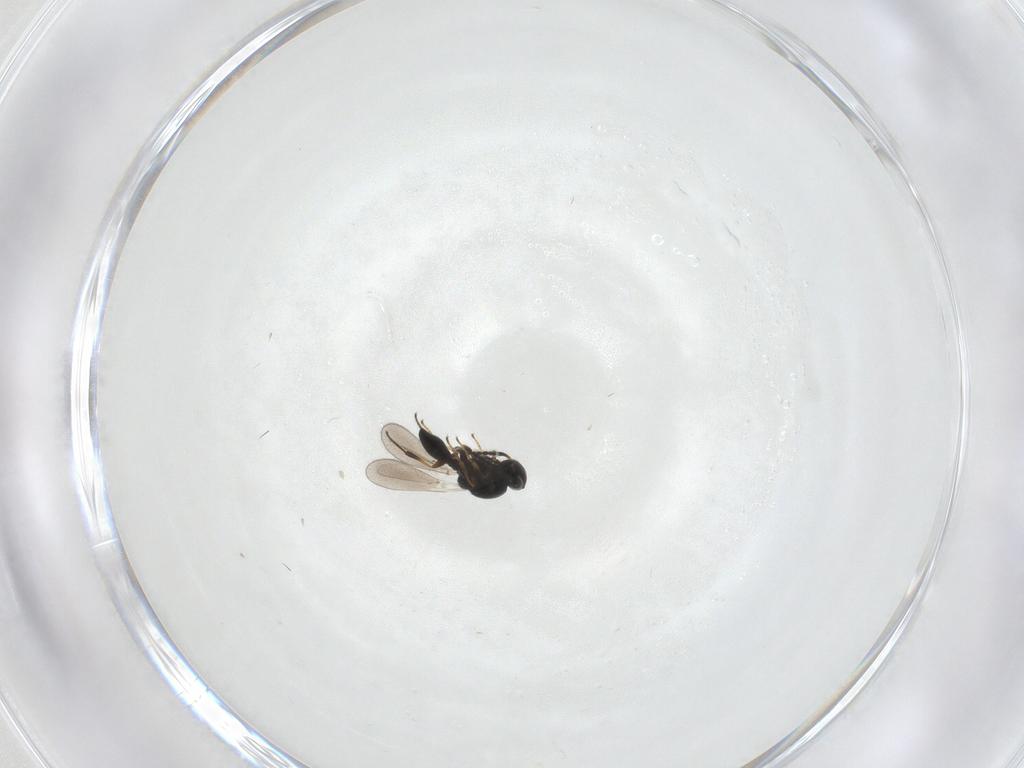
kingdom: Animalia
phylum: Arthropoda
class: Insecta
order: Hymenoptera
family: Platygastridae
